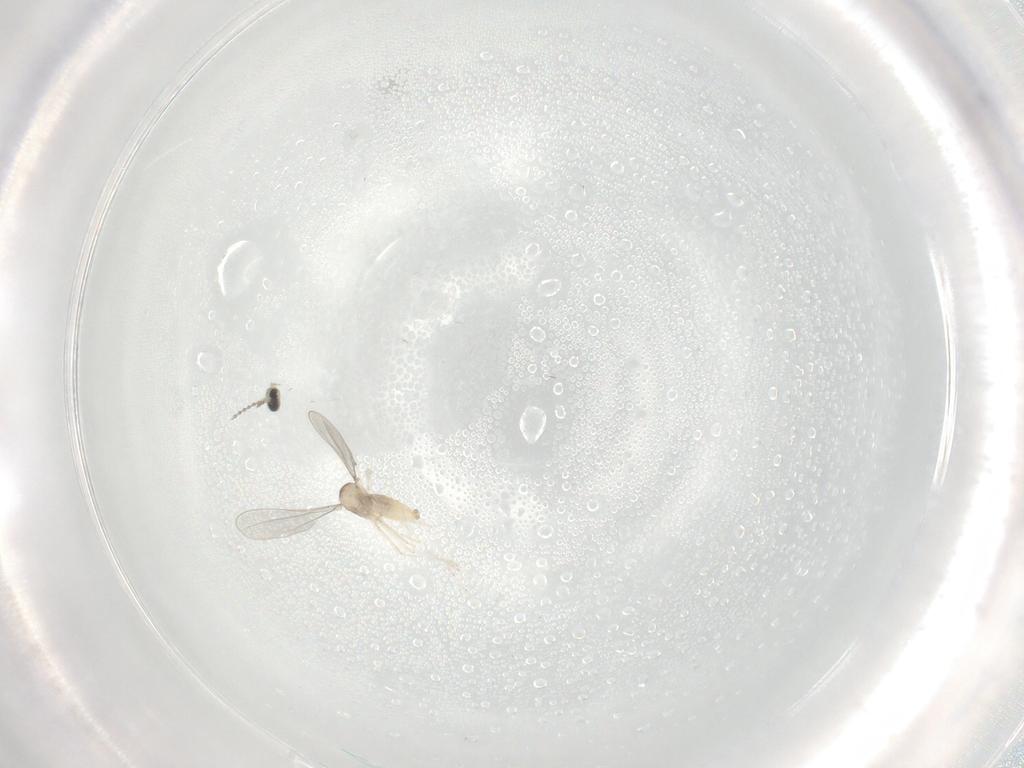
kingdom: Animalia
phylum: Arthropoda
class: Insecta
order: Diptera
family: Cecidomyiidae
